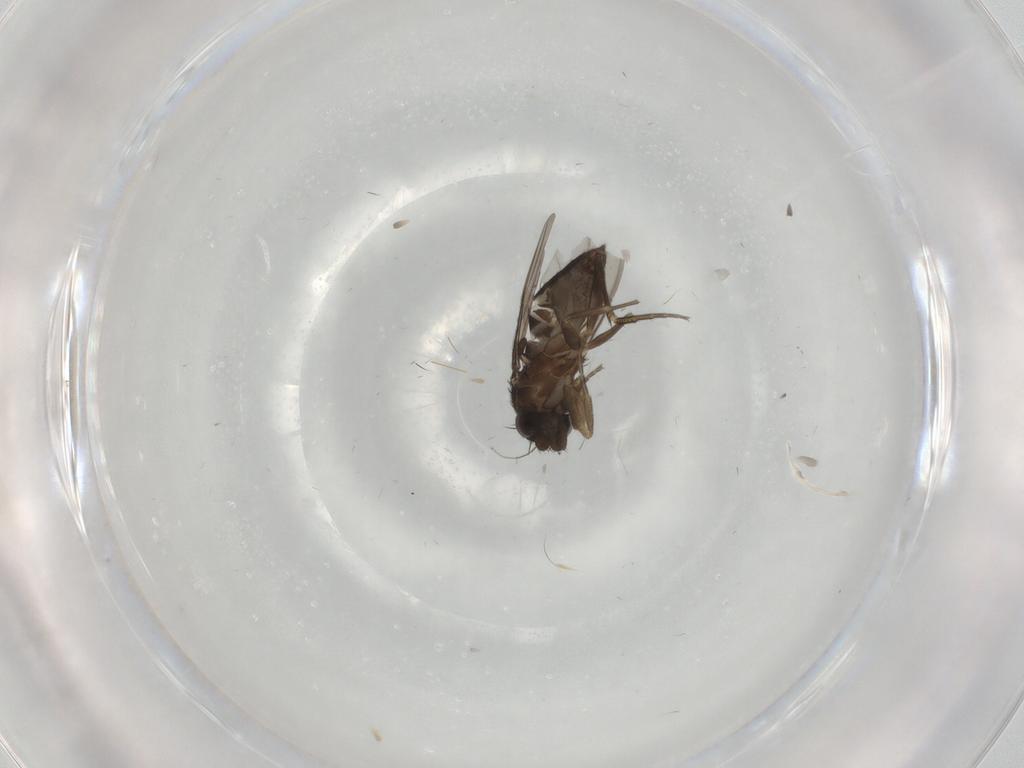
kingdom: Animalia
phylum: Arthropoda
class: Insecta
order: Diptera
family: Phoridae
